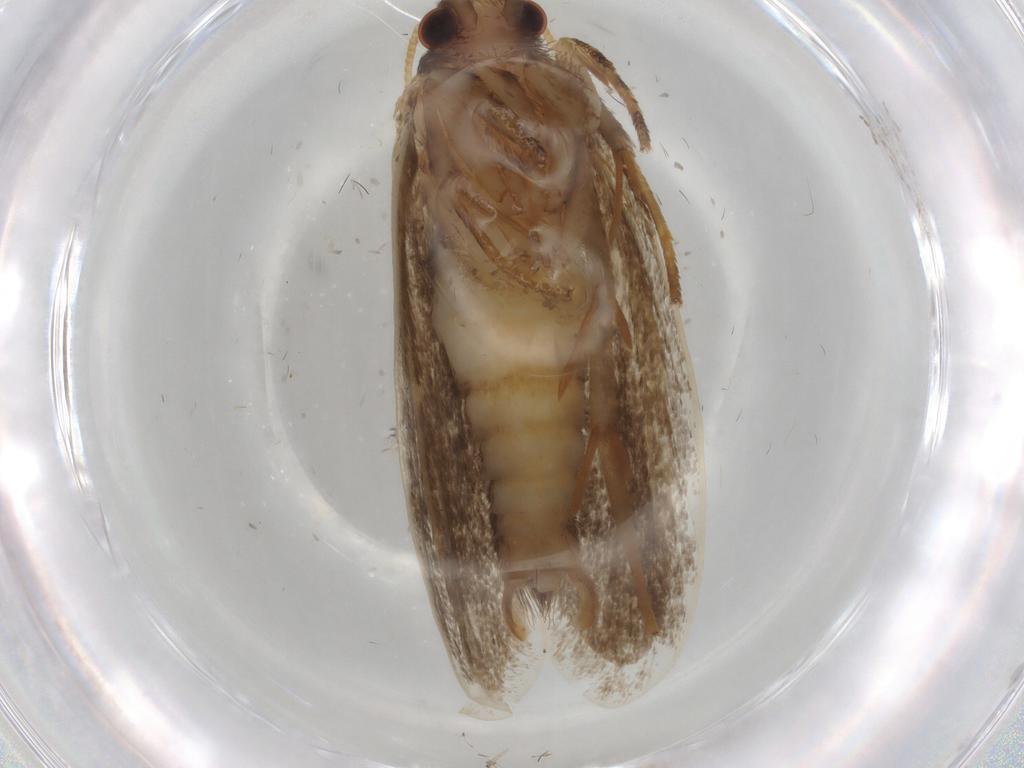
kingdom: Animalia
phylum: Arthropoda
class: Insecta
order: Lepidoptera
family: Tineidae
